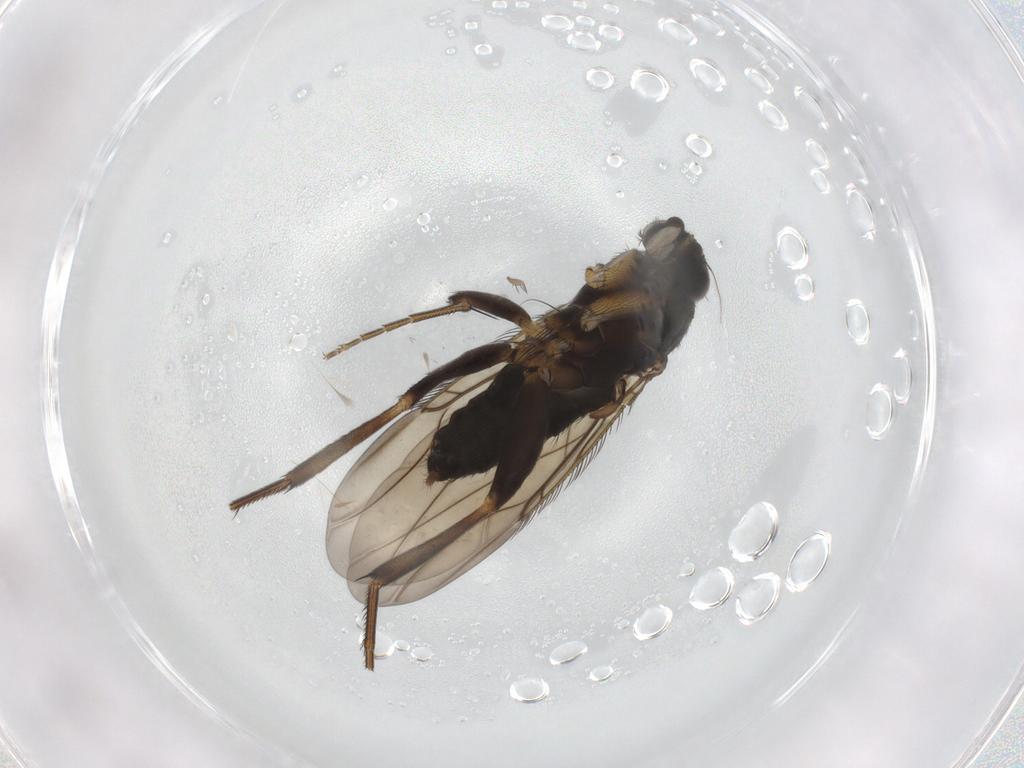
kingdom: Animalia
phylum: Arthropoda
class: Insecta
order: Diptera
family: Phoridae
